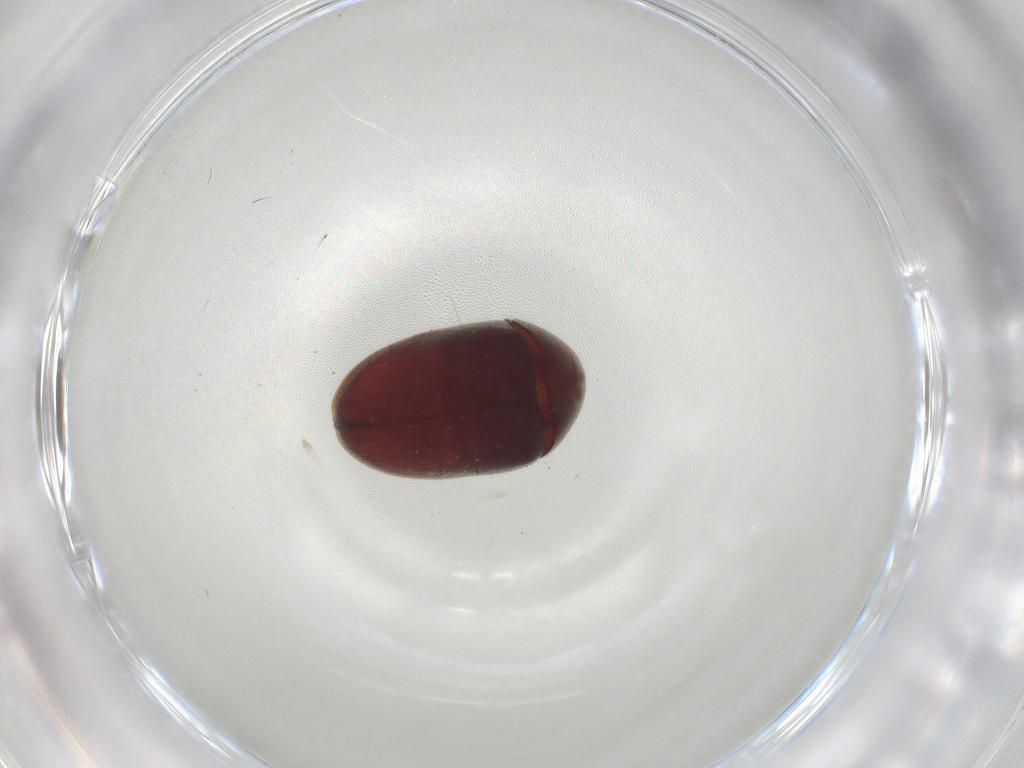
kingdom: Animalia
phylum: Arthropoda
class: Insecta
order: Coleoptera
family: Anobiidae
